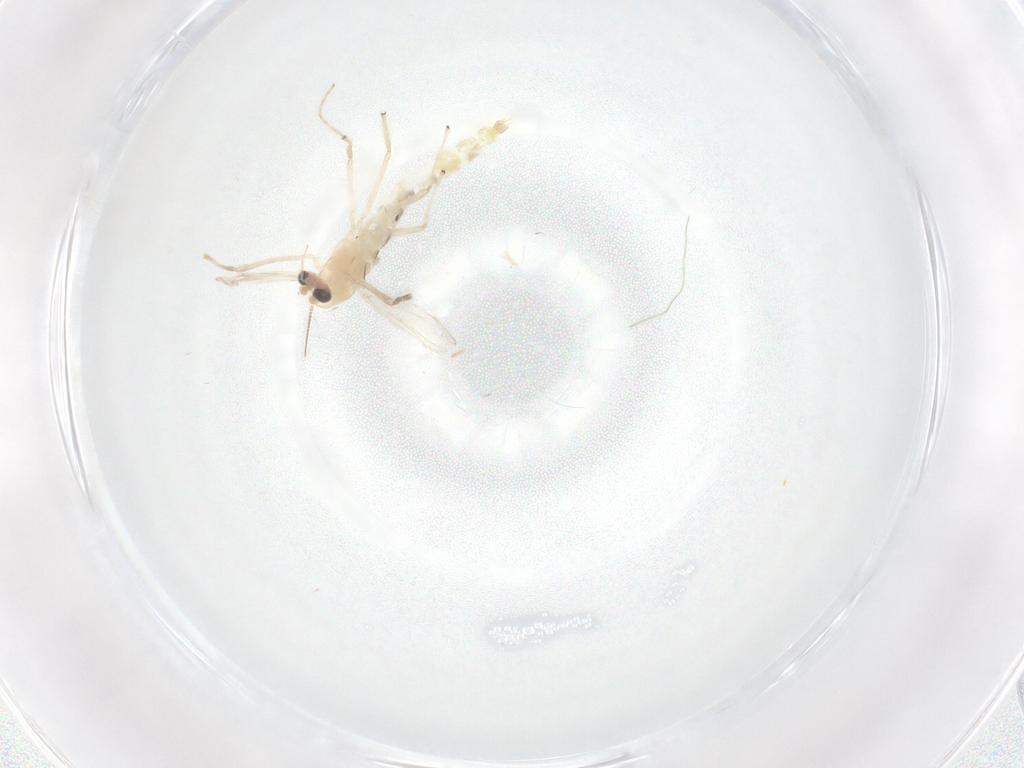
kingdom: Animalia
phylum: Arthropoda
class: Insecta
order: Diptera
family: Chironomidae
